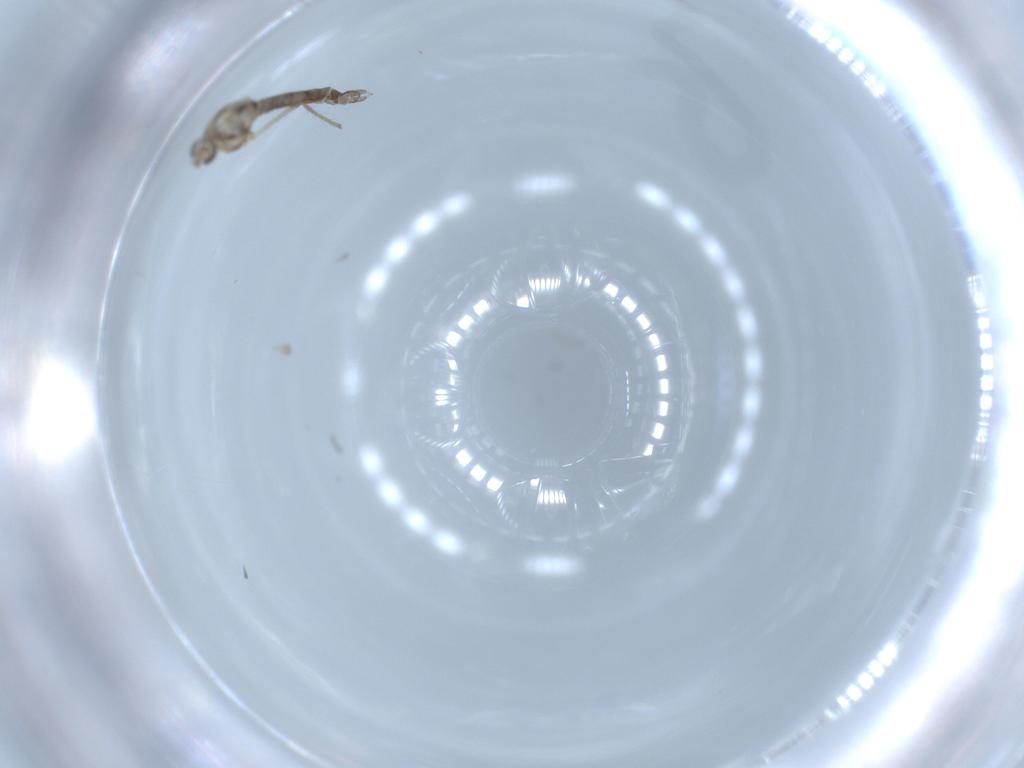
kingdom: Animalia
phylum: Arthropoda
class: Insecta
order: Diptera
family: Chironomidae
